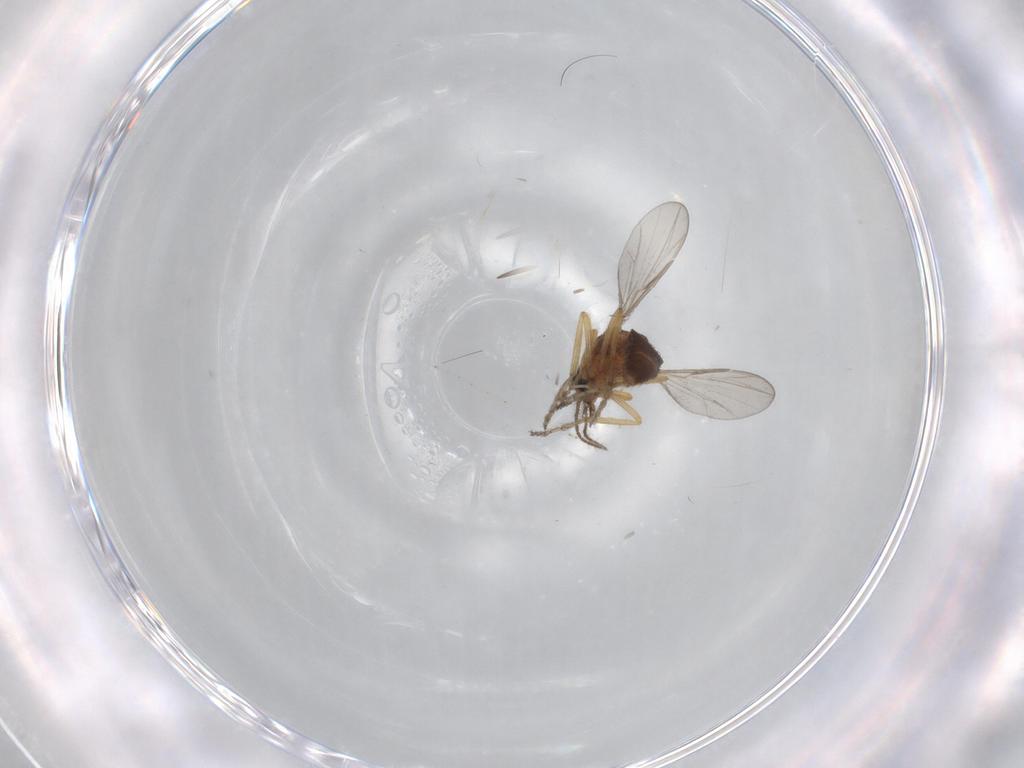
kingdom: Animalia
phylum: Arthropoda
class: Insecta
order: Diptera
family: Ceratopogonidae
